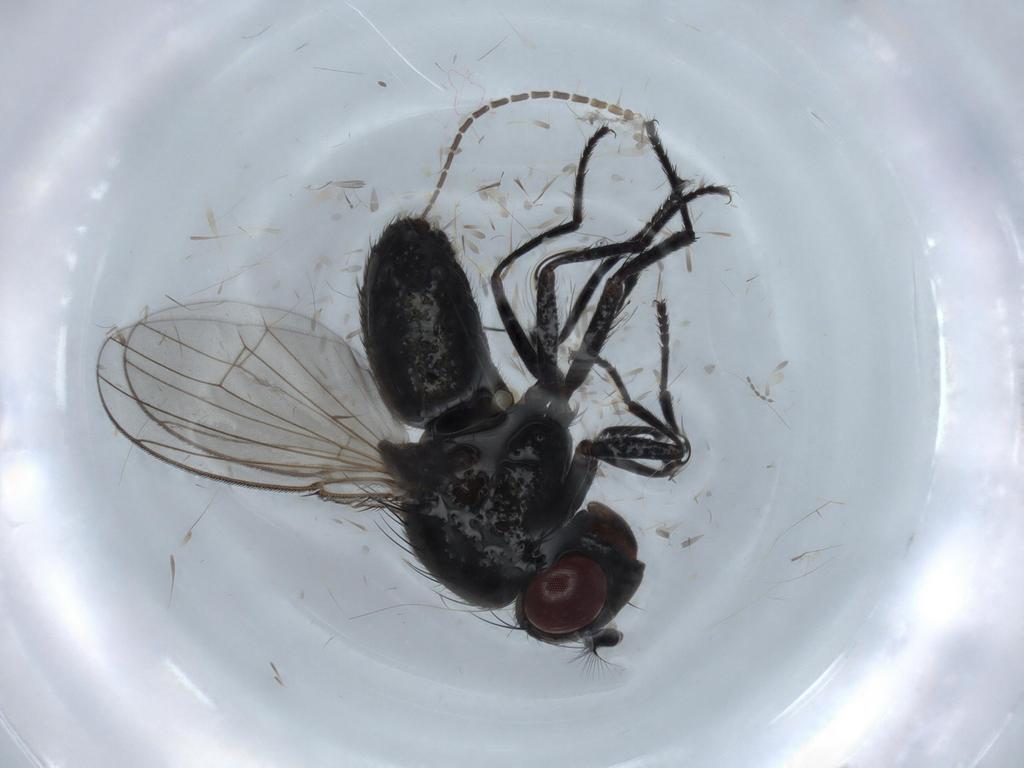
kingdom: Animalia
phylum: Arthropoda
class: Insecta
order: Diptera
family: Ephydridae
